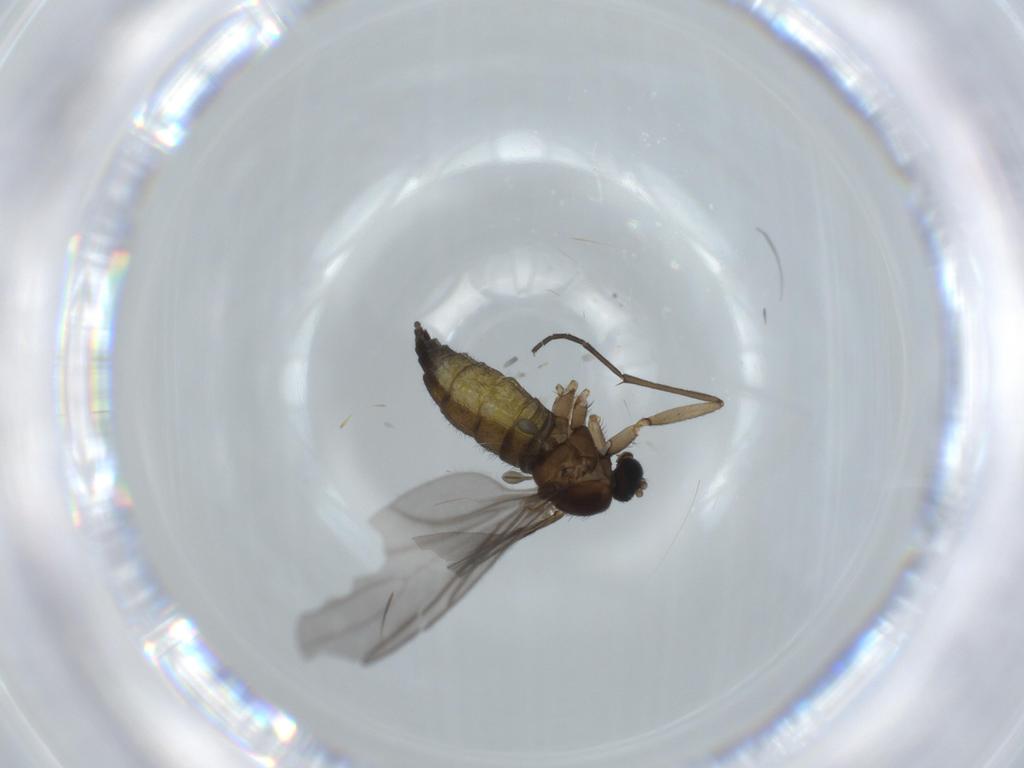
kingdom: Animalia
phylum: Arthropoda
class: Insecta
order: Diptera
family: Sciaridae
